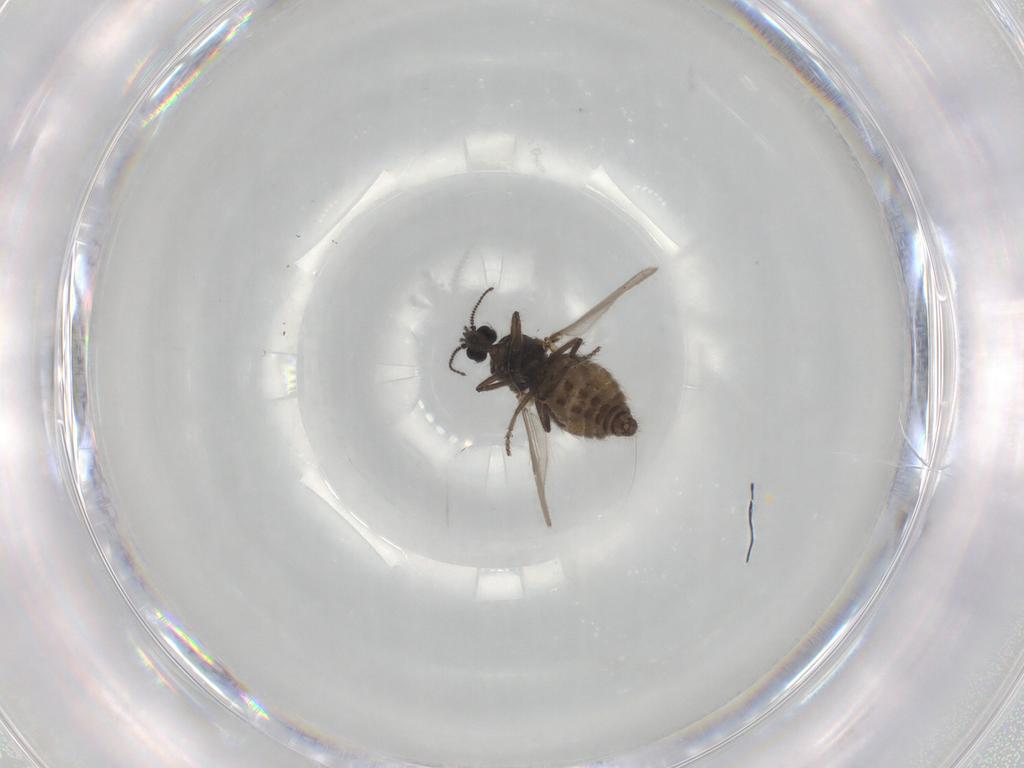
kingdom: Animalia
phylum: Arthropoda
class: Insecta
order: Diptera
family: Ceratopogonidae
